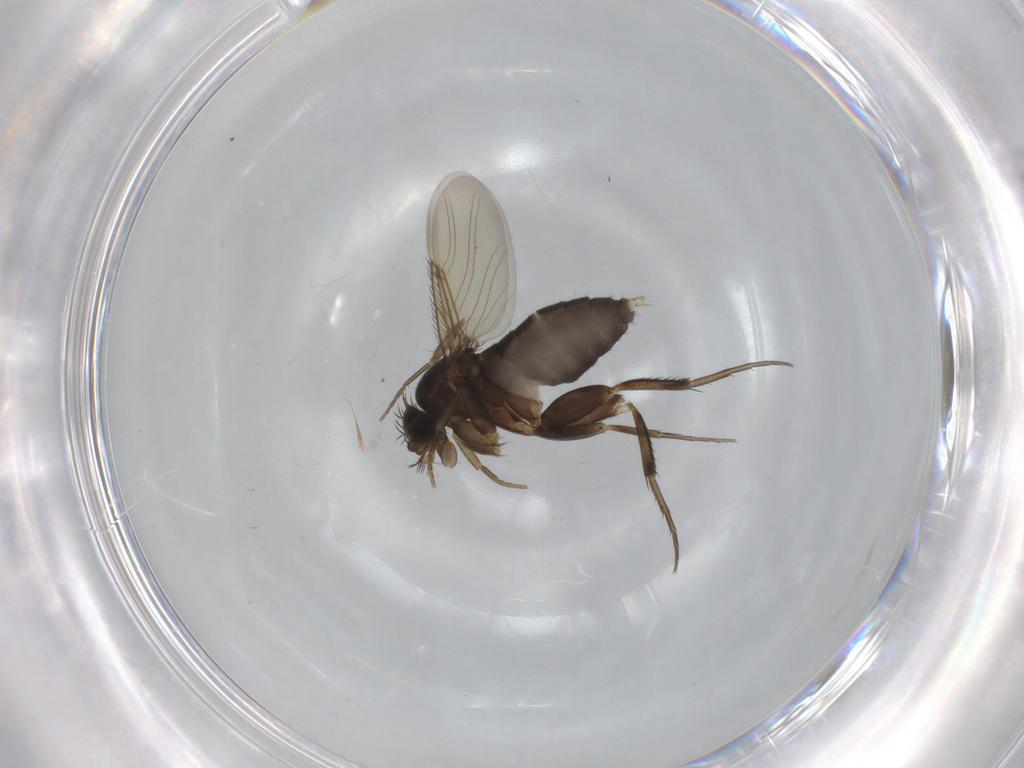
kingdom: Animalia
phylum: Arthropoda
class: Insecta
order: Diptera
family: Phoridae
